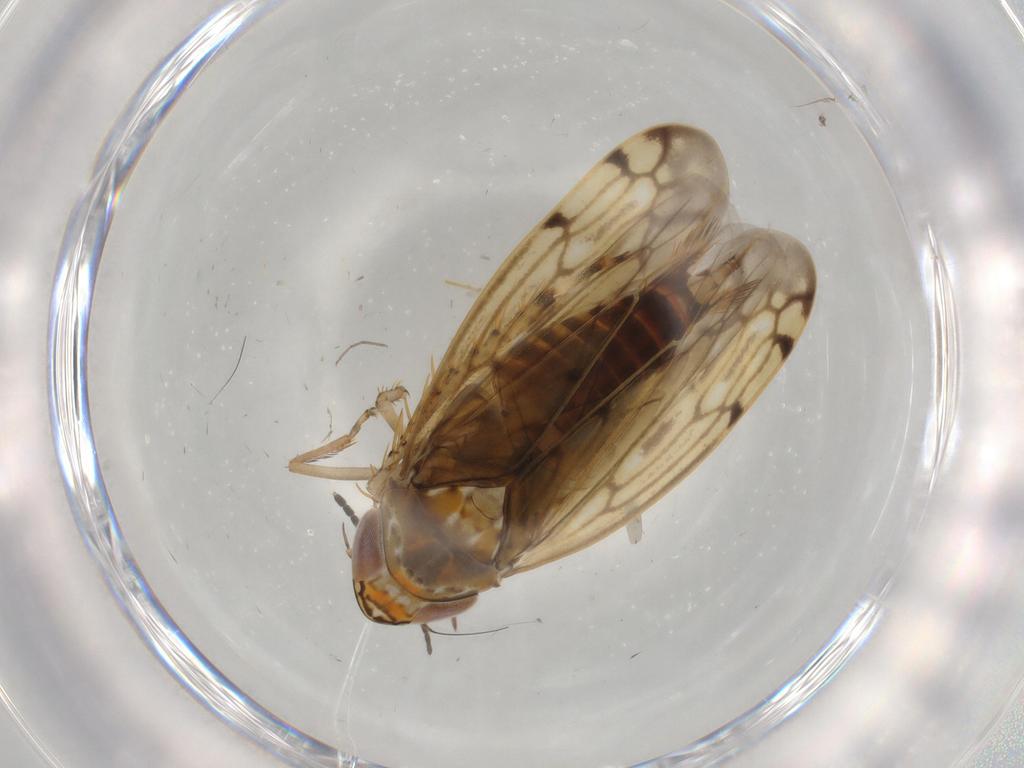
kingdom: Animalia
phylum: Arthropoda
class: Insecta
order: Hemiptera
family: Cicadellidae
